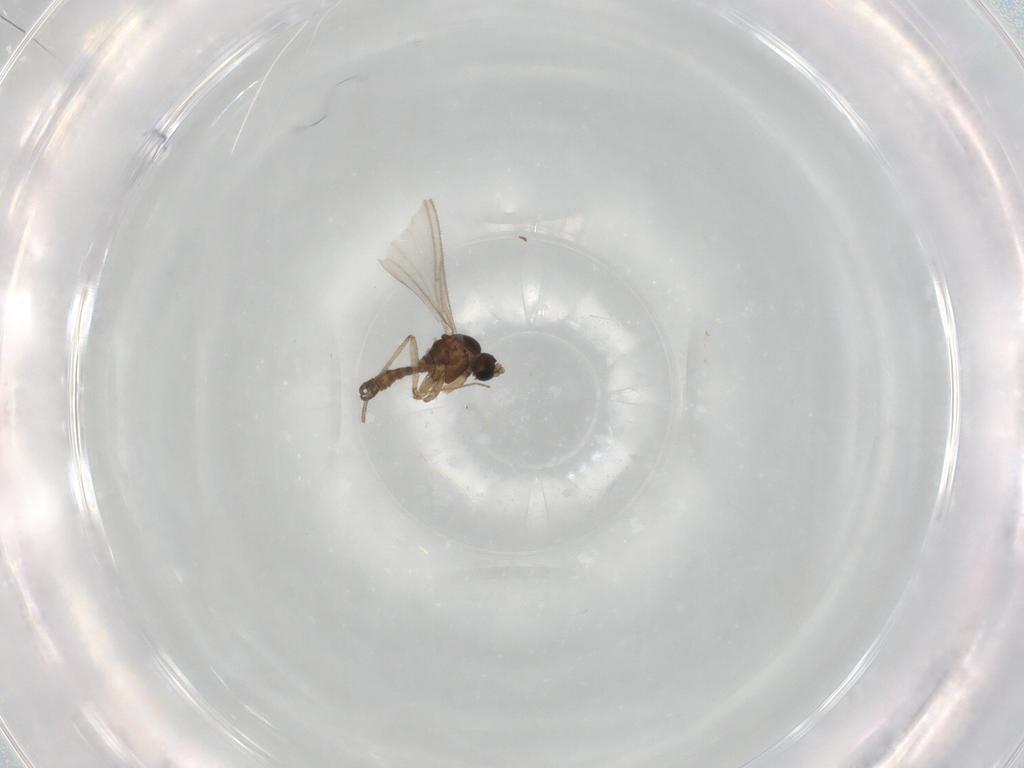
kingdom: Animalia
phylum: Arthropoda
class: Insecta
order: Diptera
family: Sciaridae
